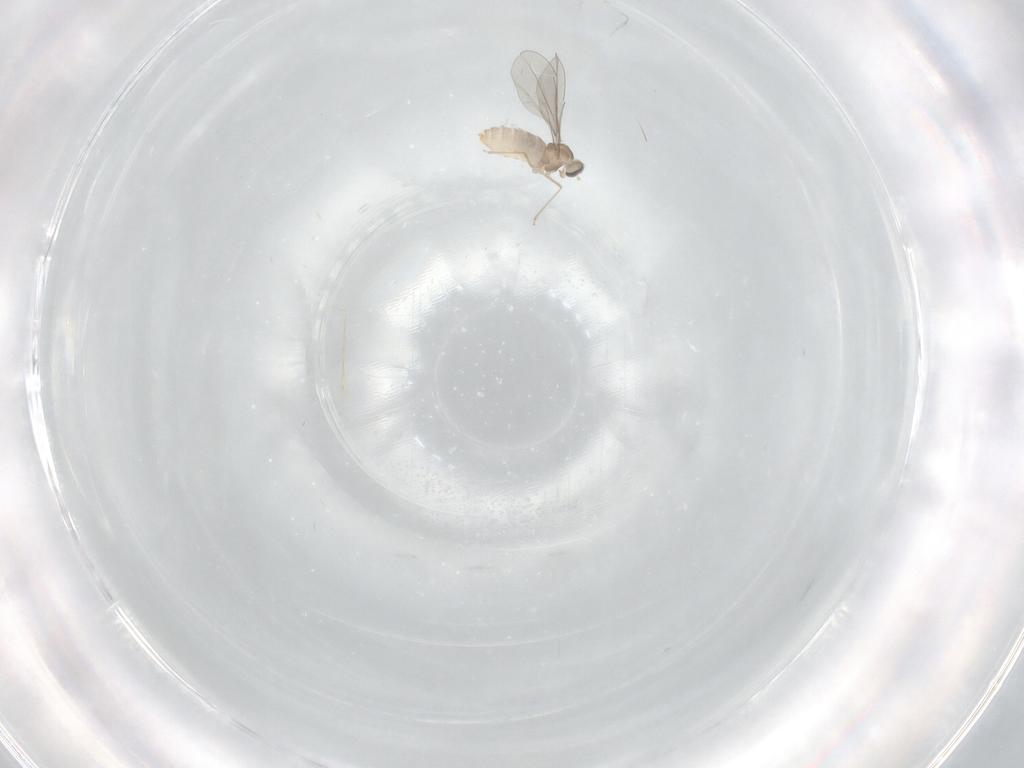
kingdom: Animalia
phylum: Arthropoda
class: Insecta
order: Diptera
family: Cecidomyiidae
